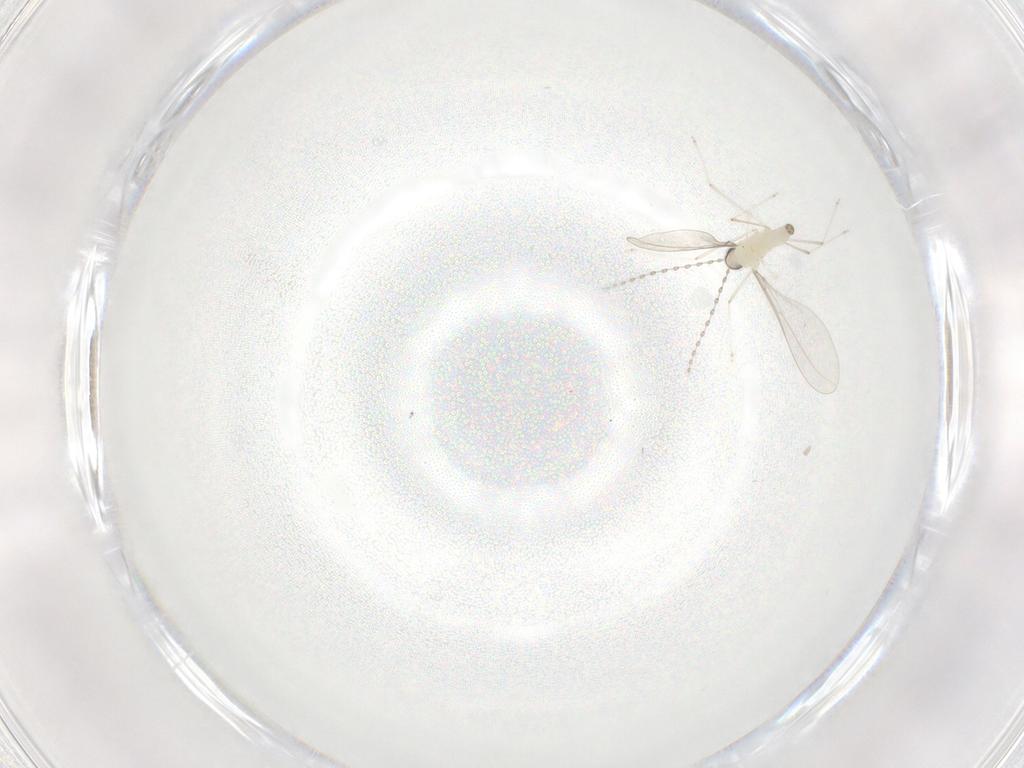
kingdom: Animalia
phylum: Arthropoda
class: Insecta
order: Diptera
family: Cecidomyiidae
